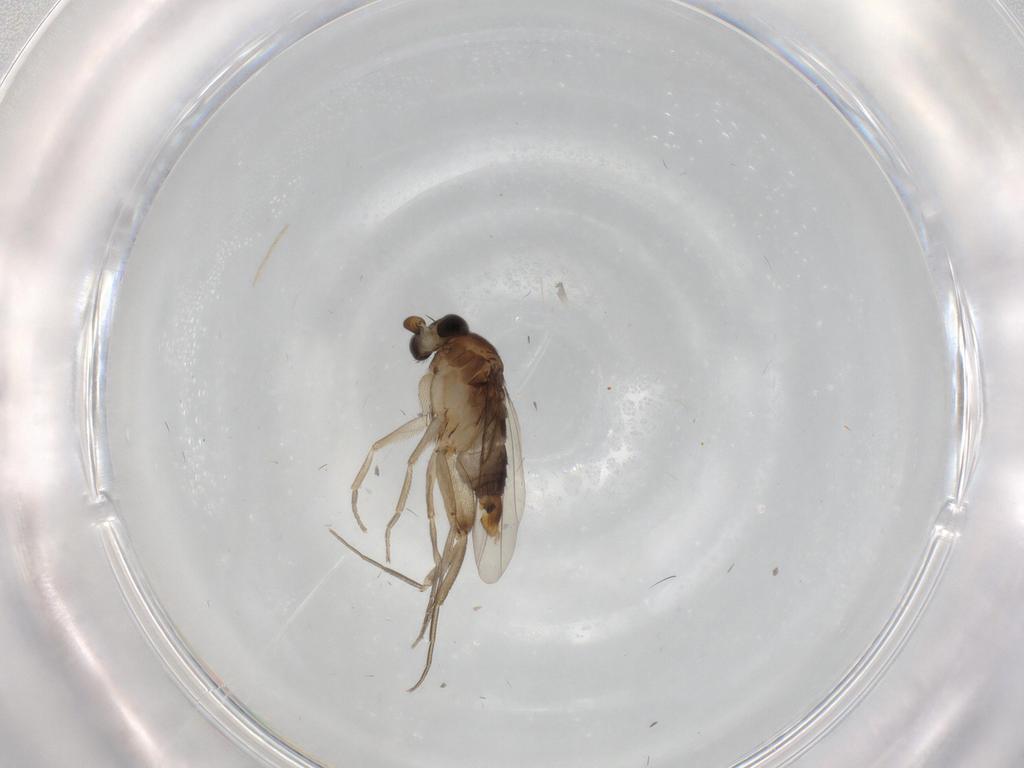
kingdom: Animalia
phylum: Arthropoda
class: Insecta
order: Diptera
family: Phoridae
